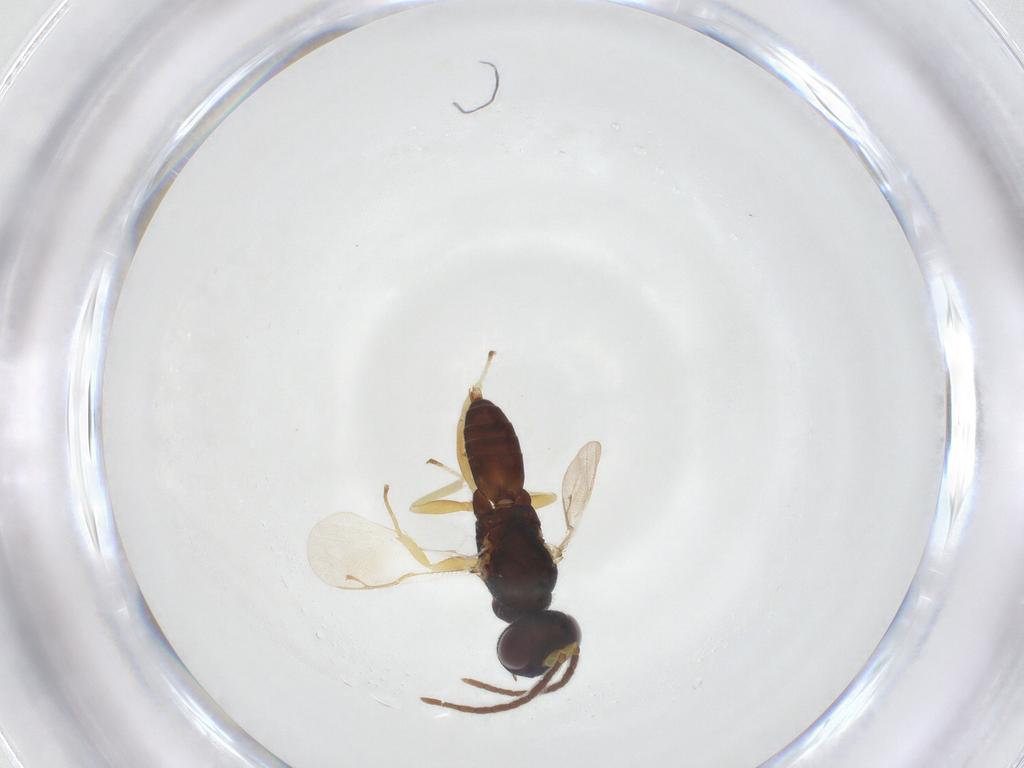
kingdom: Animalia
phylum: Arthropoda
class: Insecta
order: Hymenoptera
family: Eupelmidae
